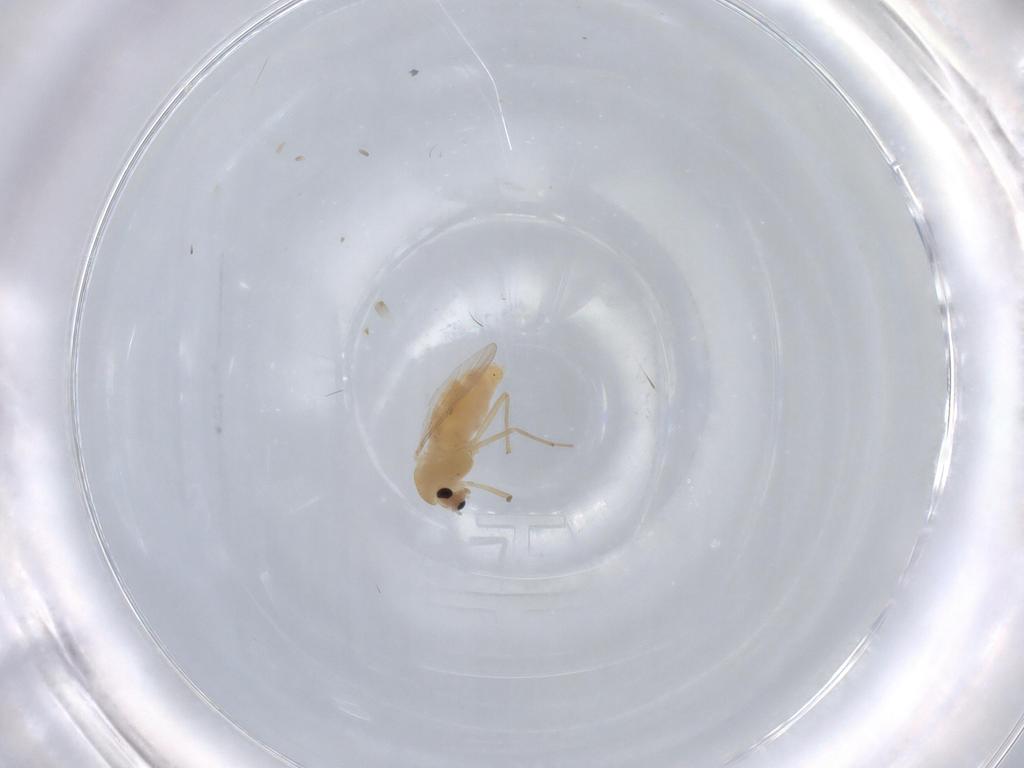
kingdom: Animalia
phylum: Arthropoda
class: Insecta
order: Diptera
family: Chironomidae
